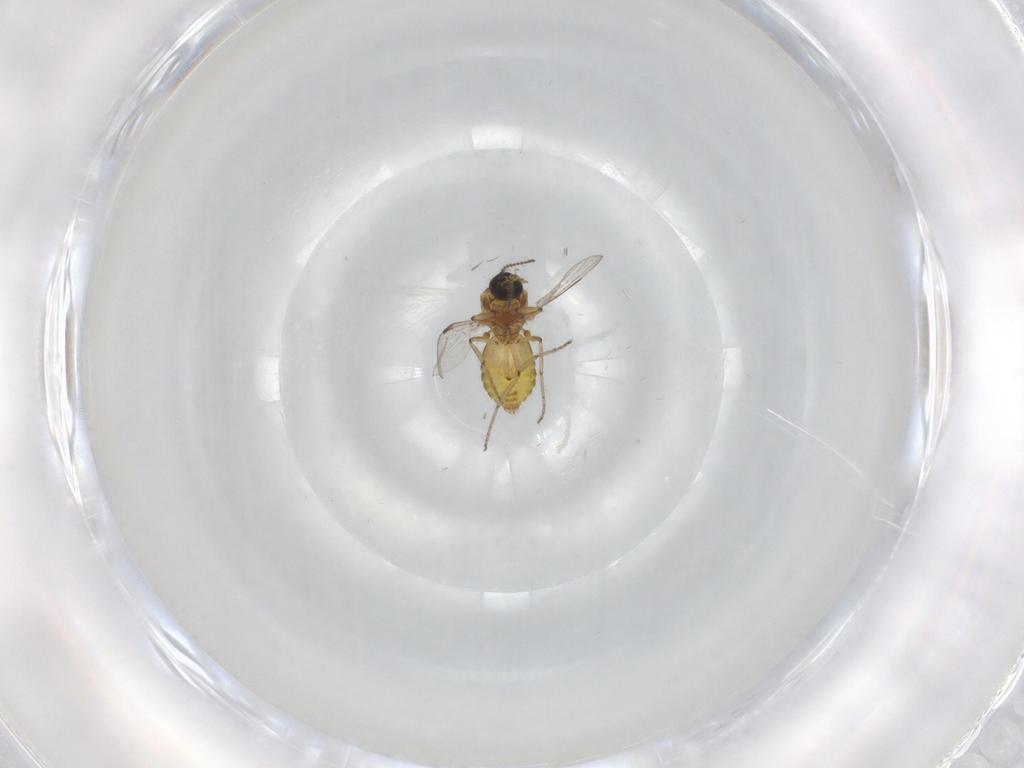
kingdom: Animalia
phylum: Arthropoda
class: Insecta
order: Diptera
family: Ceratopogonidae
